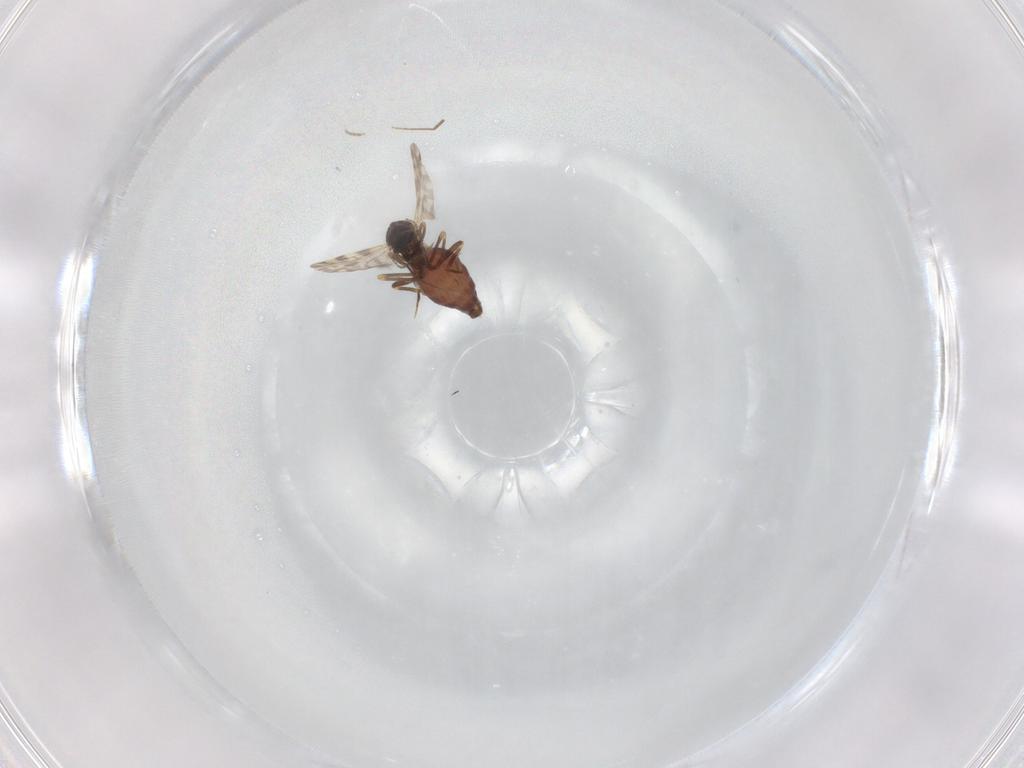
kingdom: Animalia
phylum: Arthropoda
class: Insecta
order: Diptera
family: Ceratopogonidae
